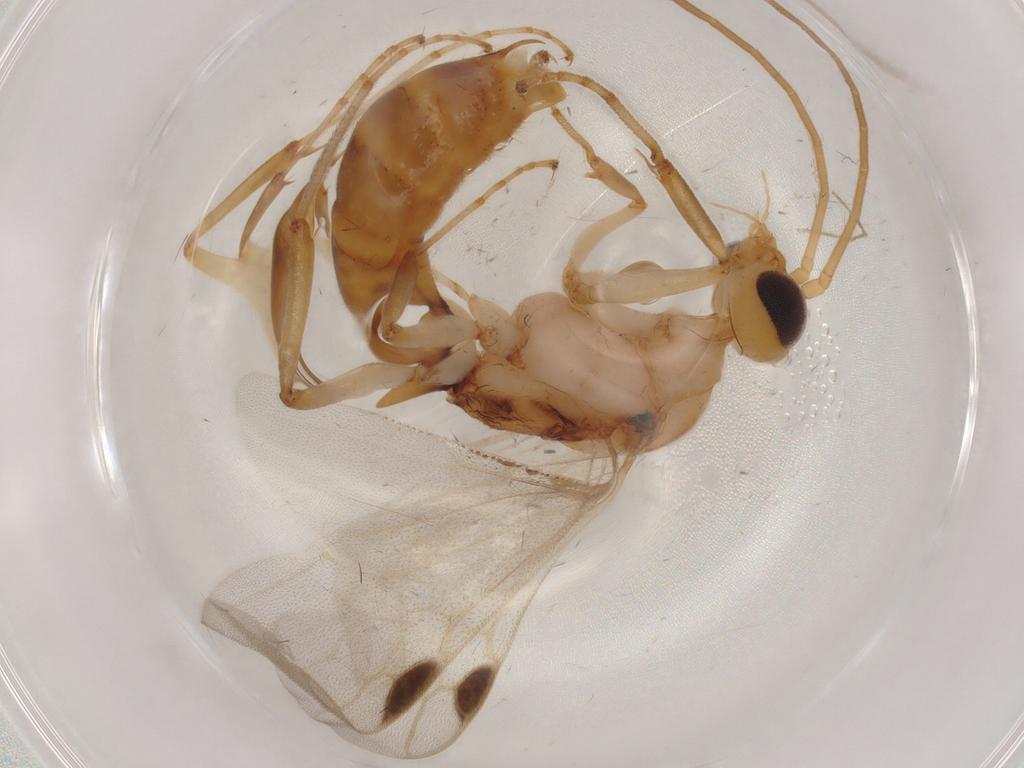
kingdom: Animalia
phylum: Arthropoda
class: Insecta
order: Hymenoptera
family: Formicidae
